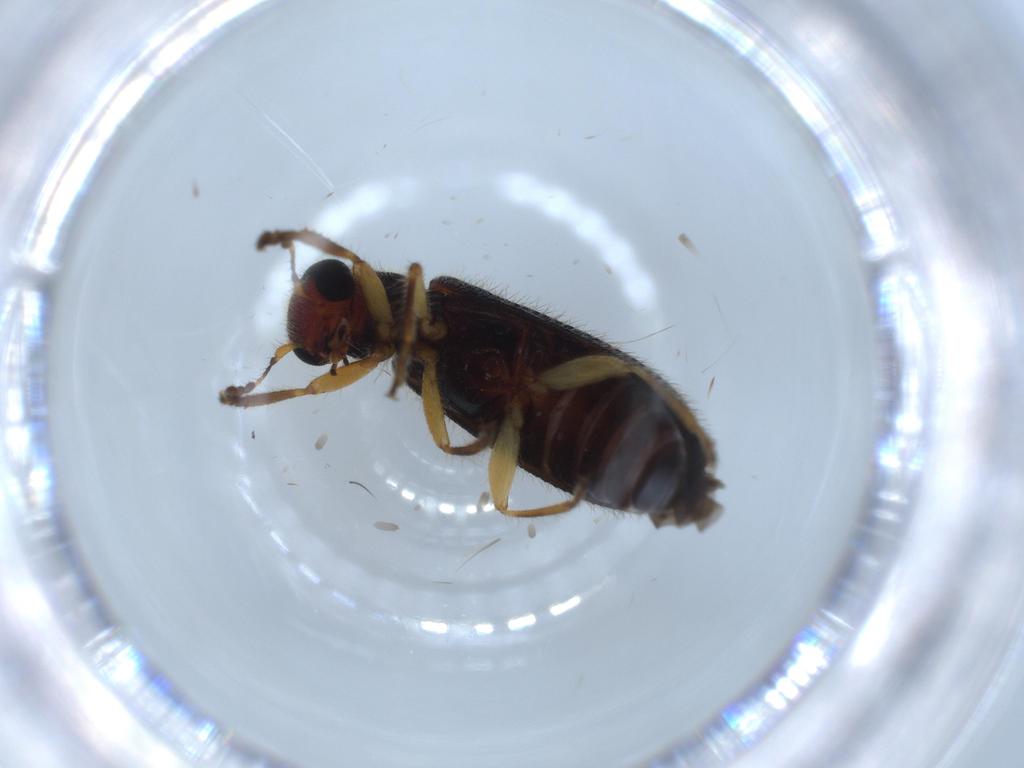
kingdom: Animalia
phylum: Arthropoda
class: Insecta
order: Coleoptera
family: Cleridae
